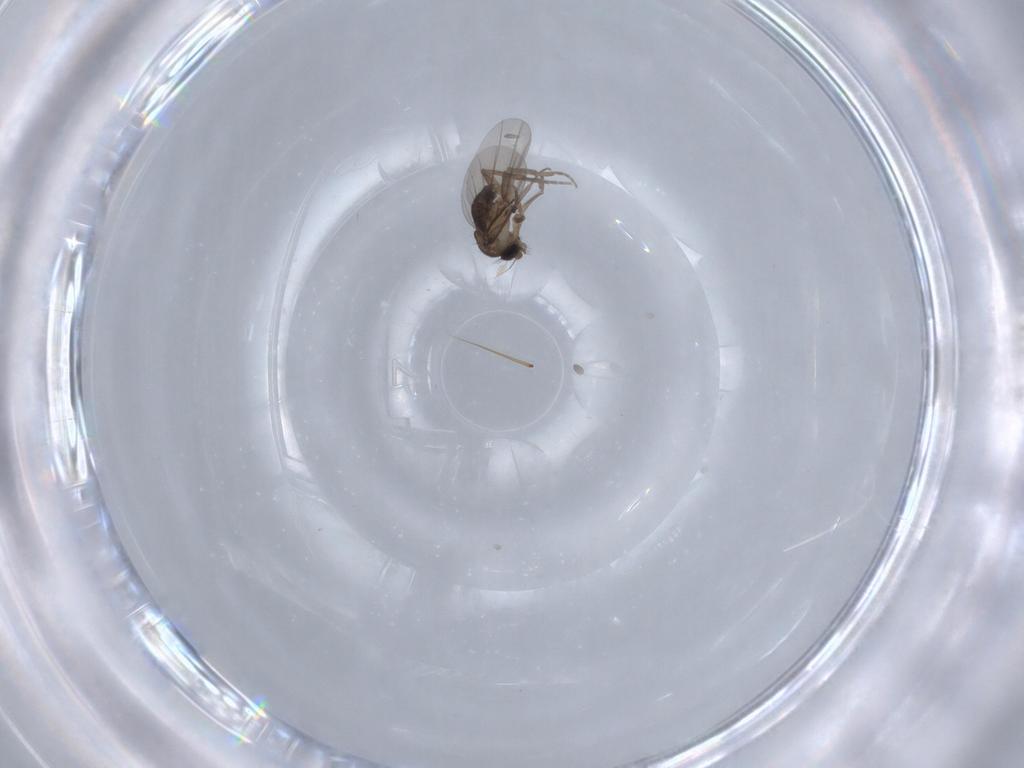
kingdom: Animalia
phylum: Arthropoda
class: Insecta
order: Diptera
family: Phoridae
